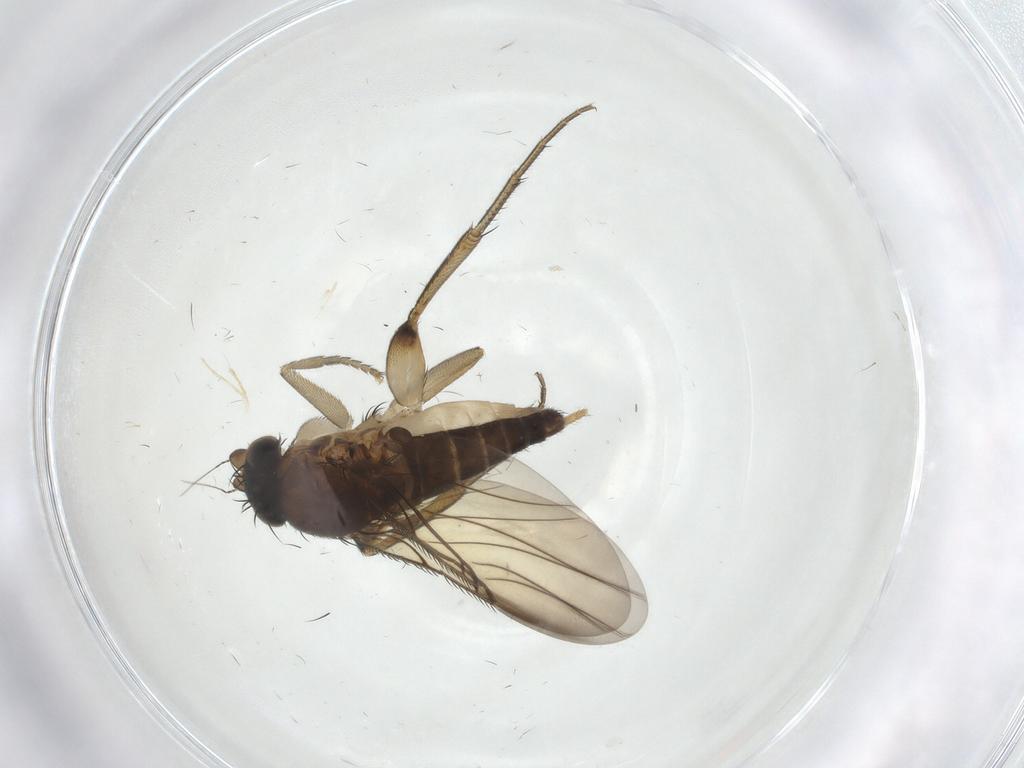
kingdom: Animalia
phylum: Arthropoda
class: Insecta
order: Diptera
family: Phoridae
